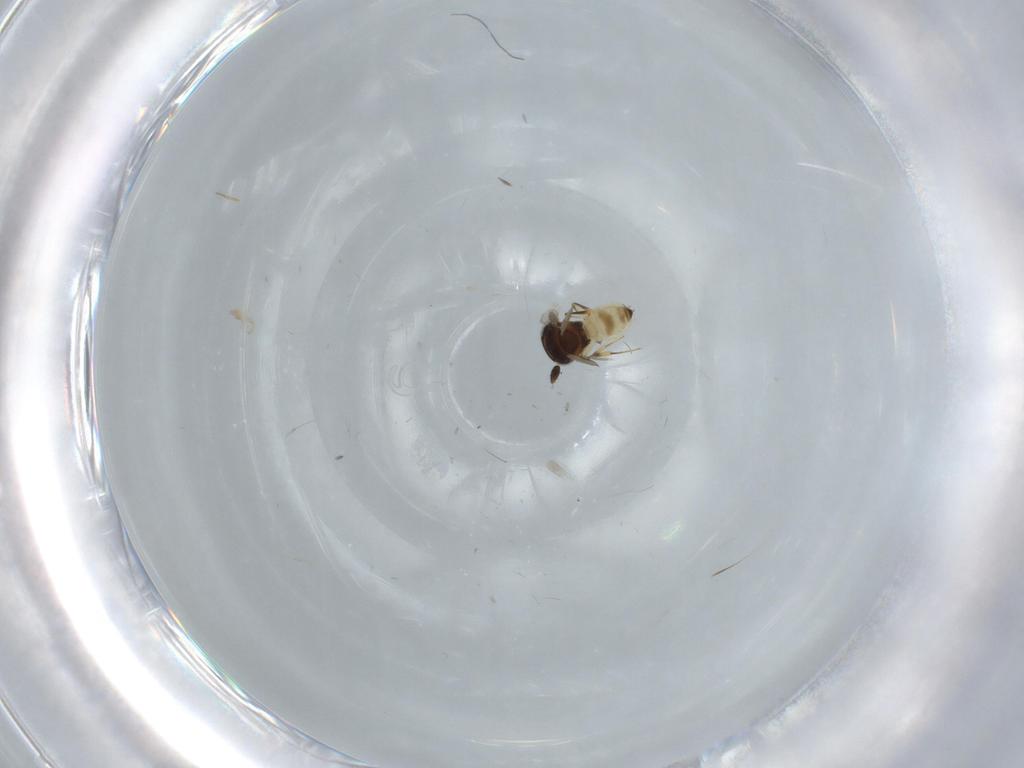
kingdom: Animalia
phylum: Arthropoda
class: Arachnida
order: Araneae
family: Pholcidae
